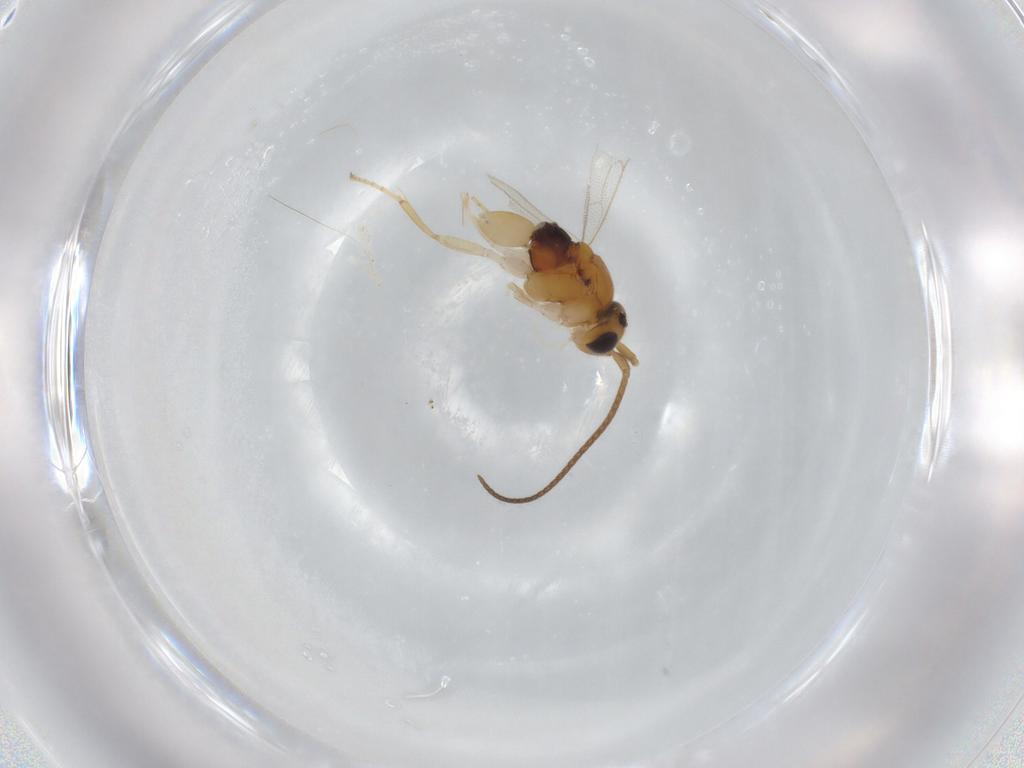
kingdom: Animalia
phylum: Arthropoda
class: Insecta
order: Hymenoptera
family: Ichneumonidae
